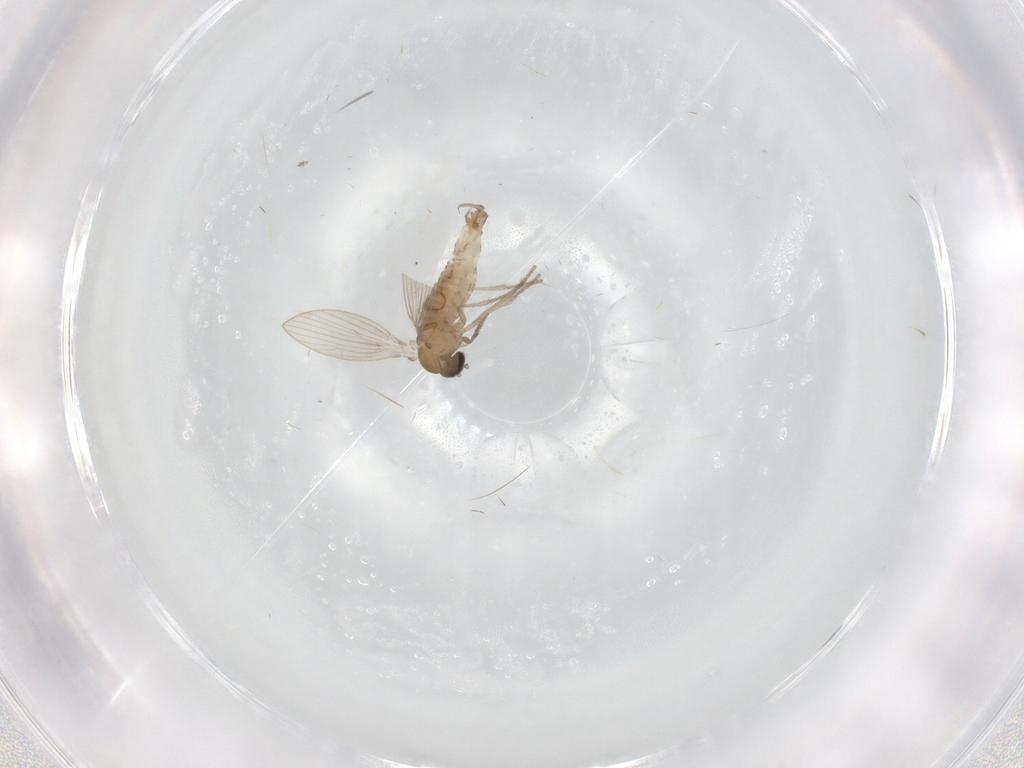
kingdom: Animalia
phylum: Arthropoda
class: Insecta
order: Diptera
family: Psychodidae
